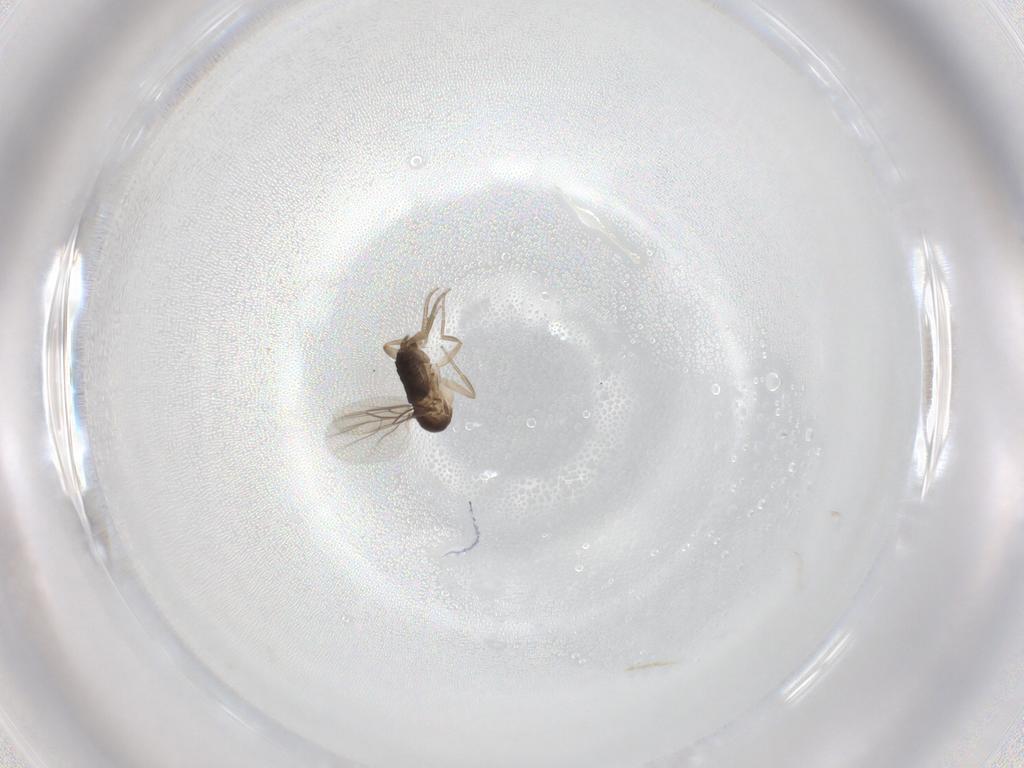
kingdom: Animalia
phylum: Arthropoda
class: Insecta
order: Diptera
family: Phoridae
